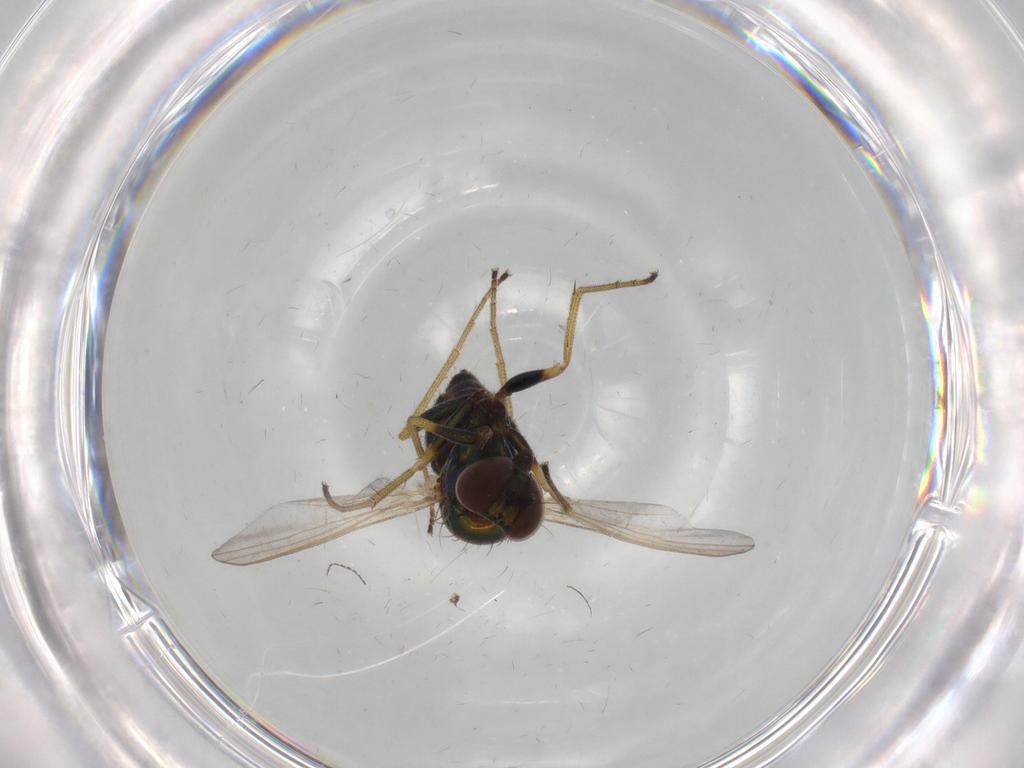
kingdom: Animalia
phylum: Arthropoda
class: Insecta
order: Diptera
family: Dolichopodidae
